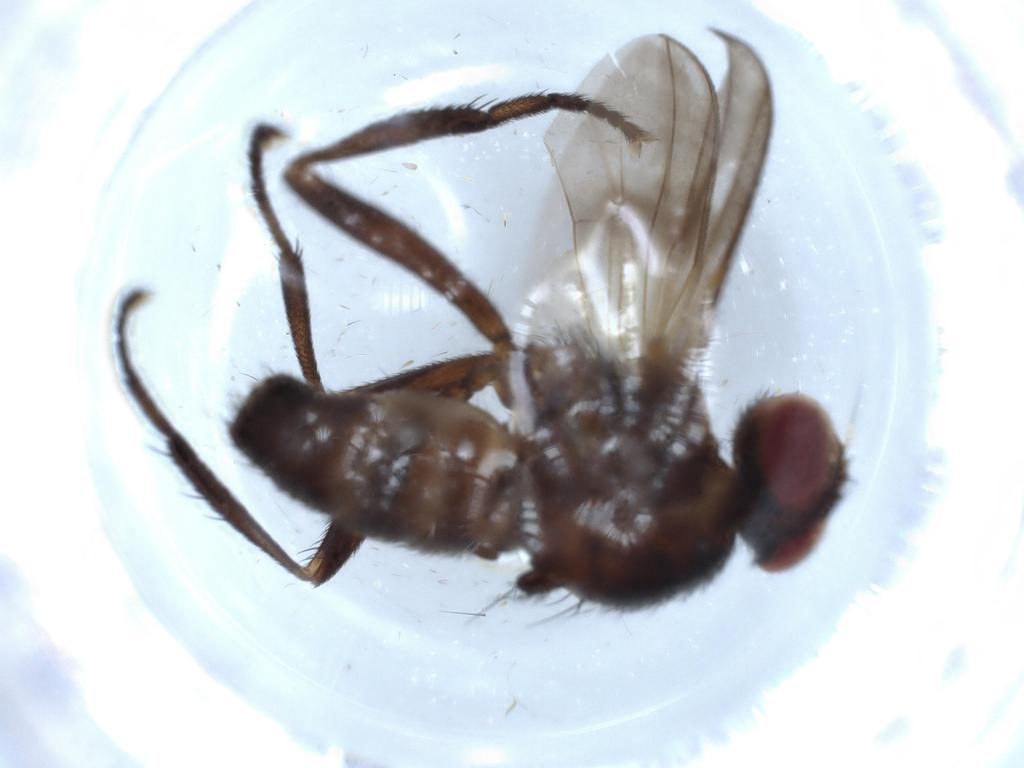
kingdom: Animalia
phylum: Arthropoda
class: Insecta
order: Diptera
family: Calliphoridae
